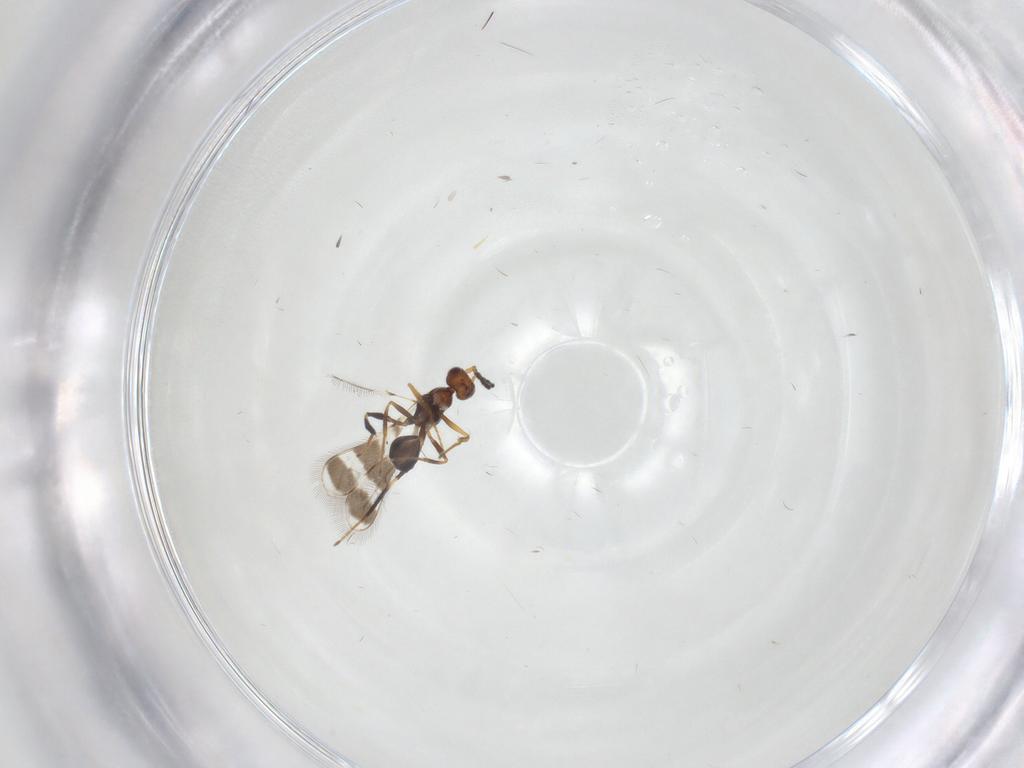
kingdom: Animalia
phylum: Arthropoda
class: Insecta
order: Hymenoptera
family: Mymaridae
